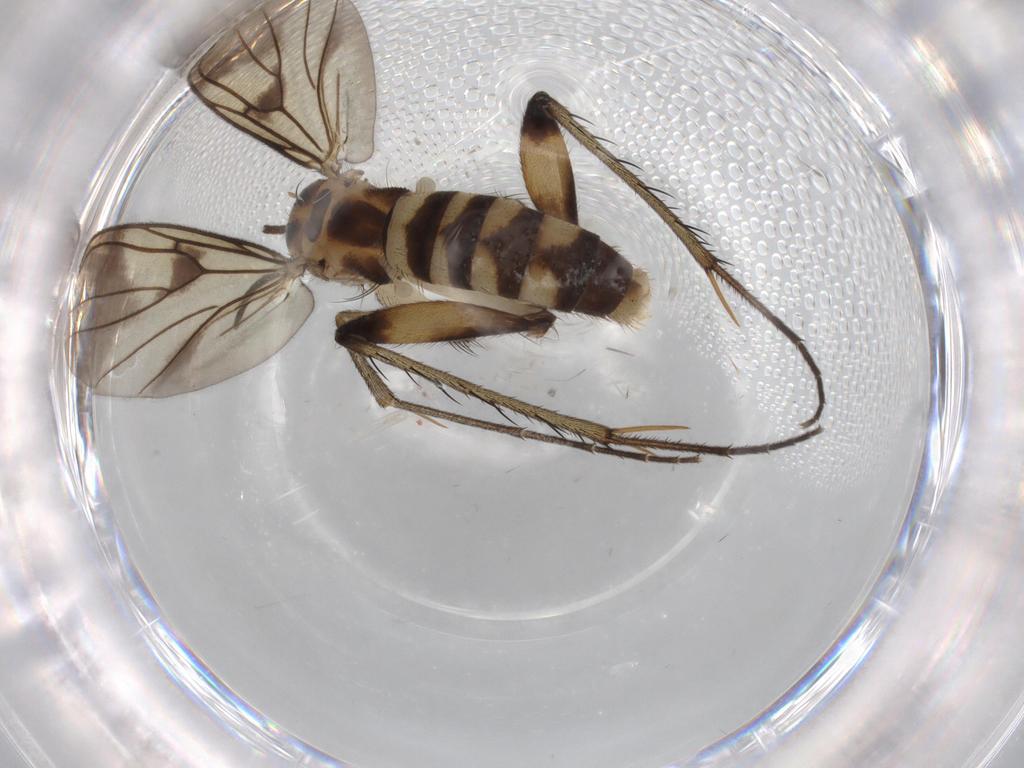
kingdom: Animalia
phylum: Arthropoda
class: Insecta
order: Diptera
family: Drosophilidae
